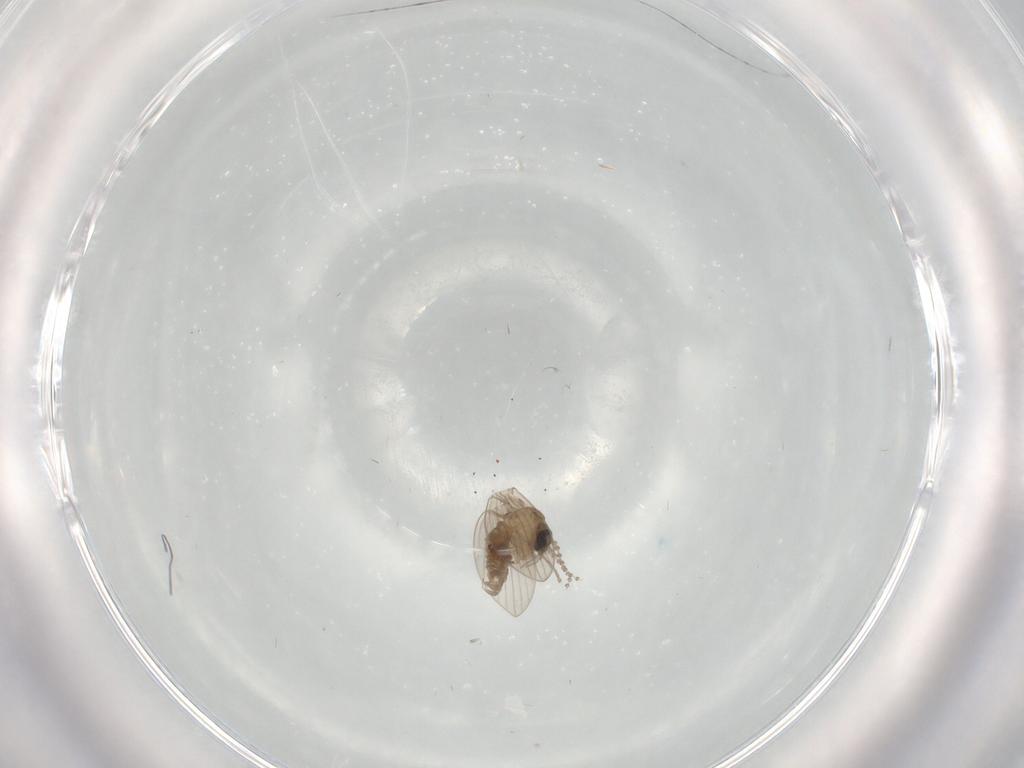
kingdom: Animalia
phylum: Arthropoda
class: Insecta
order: Diptera
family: Psychodidae
